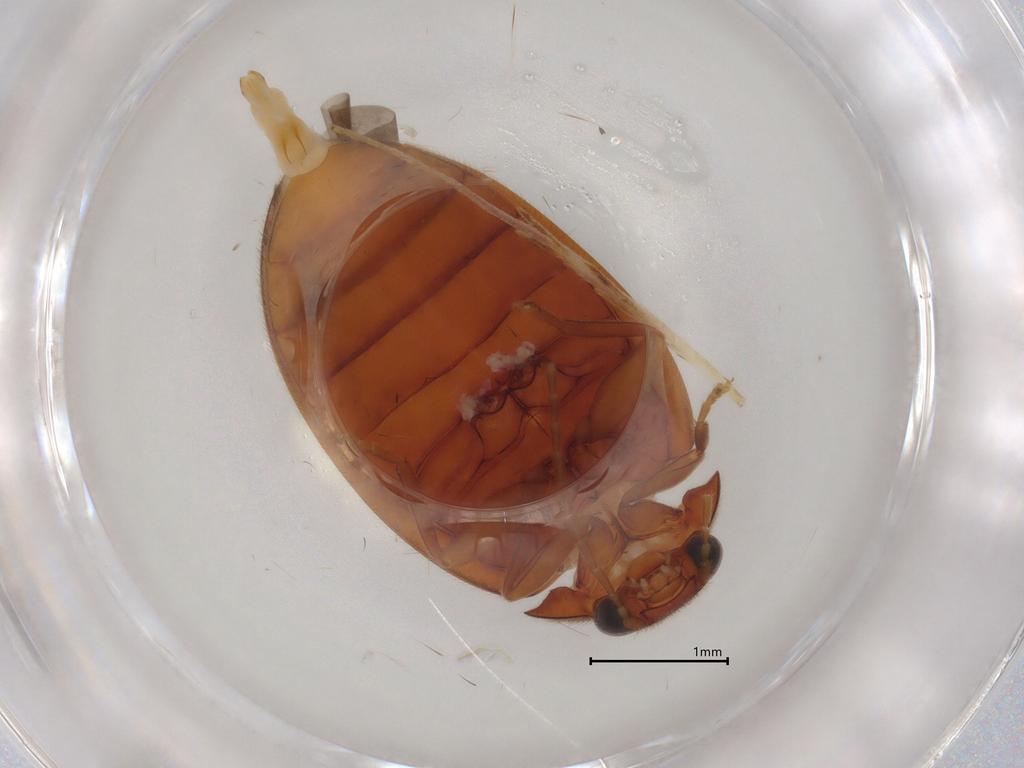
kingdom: Animalia
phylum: Arthropoda
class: Insecta
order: Coleoptera
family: Scirtidae
